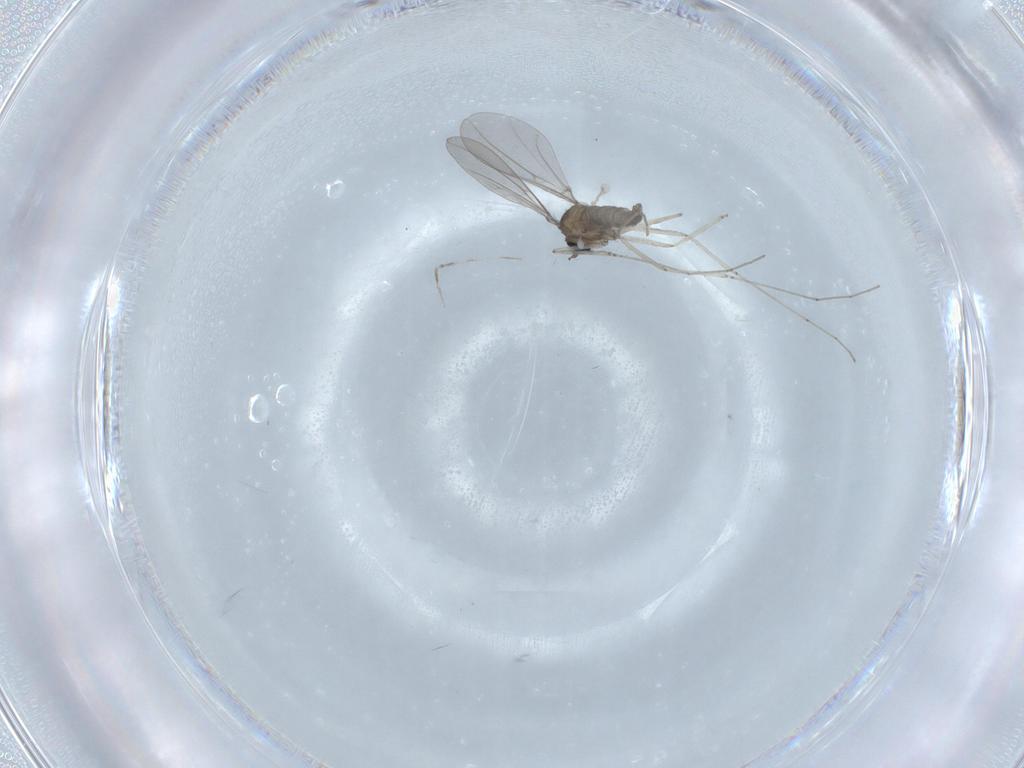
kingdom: Animalia
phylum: Arthropoda
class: Insecta
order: Diptera
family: Cecidomyiidae
